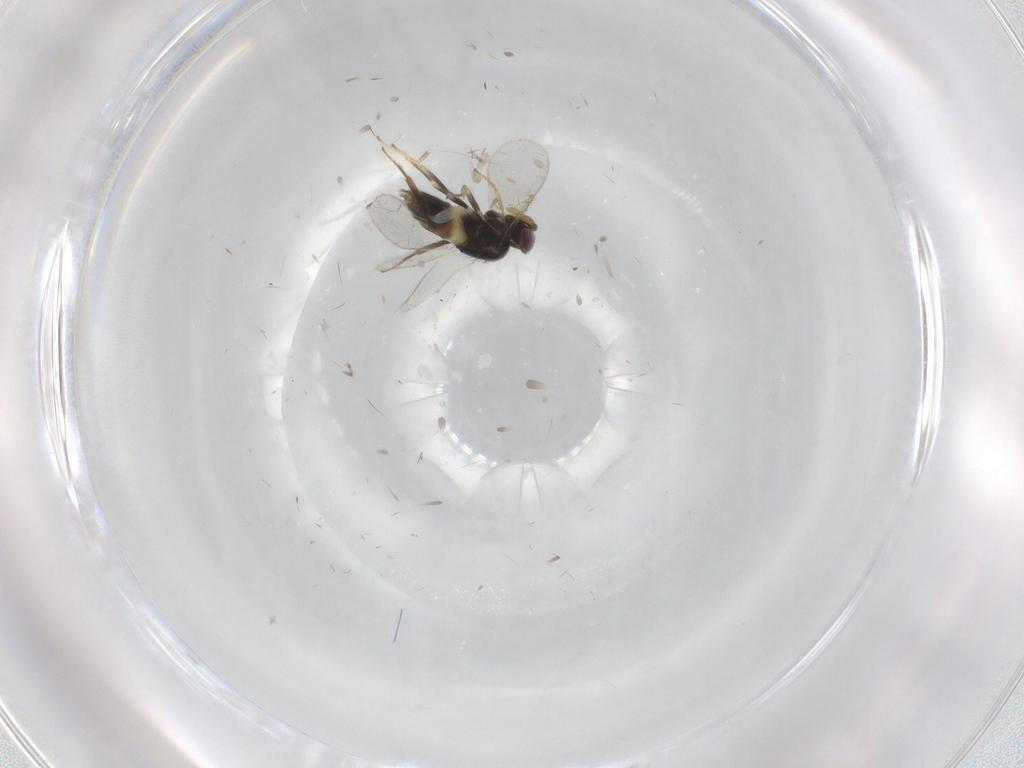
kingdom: Animalia
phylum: Arthropoda
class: Insecta
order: Hymenoptera
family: Aphelinidae
